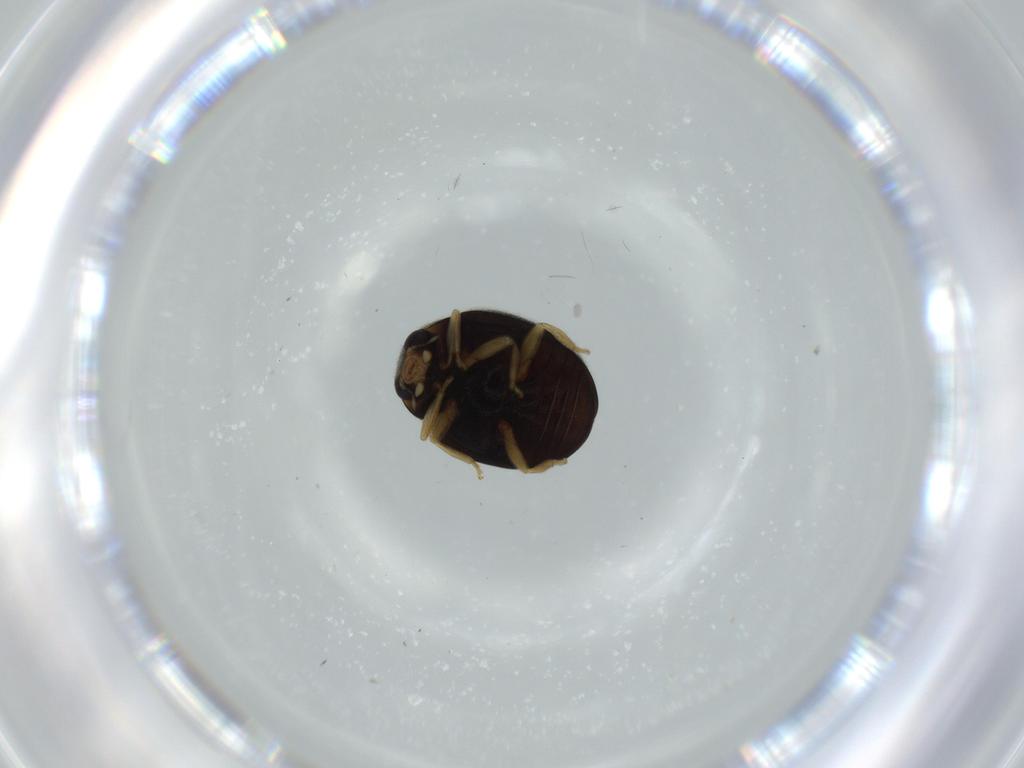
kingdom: Animalia
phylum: Arthropoda
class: Insecta
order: Coleoptera
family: Coccinellidae
